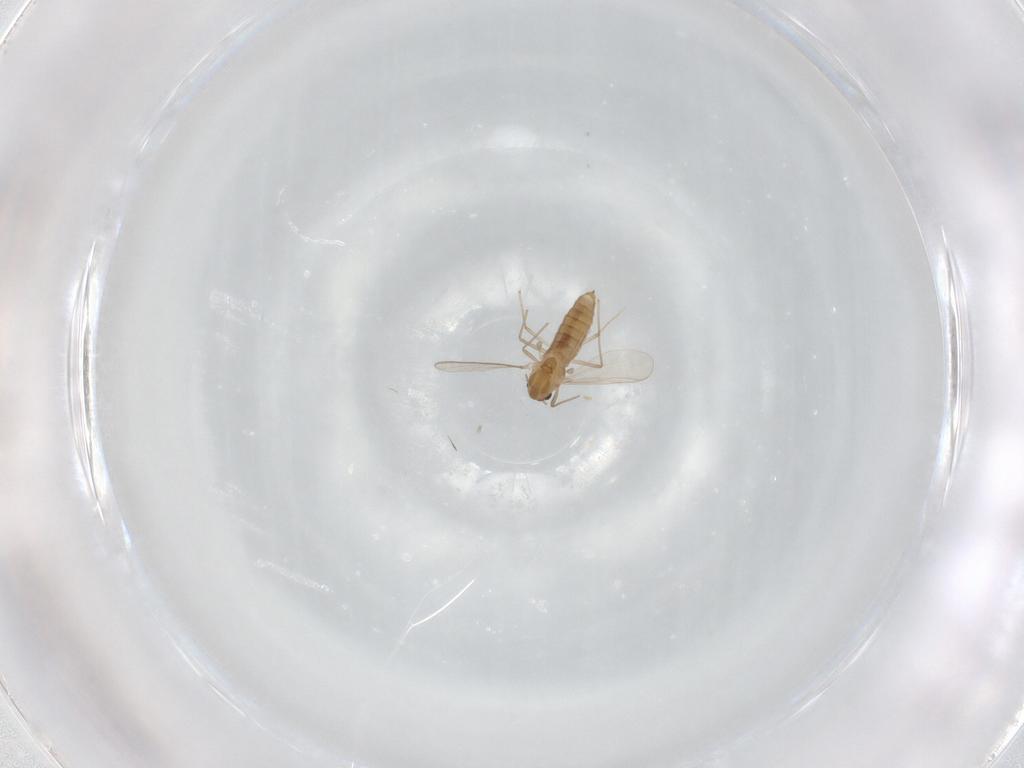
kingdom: Animalia
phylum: Arthropoda
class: Insecta
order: Diptera
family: Chironomidae
